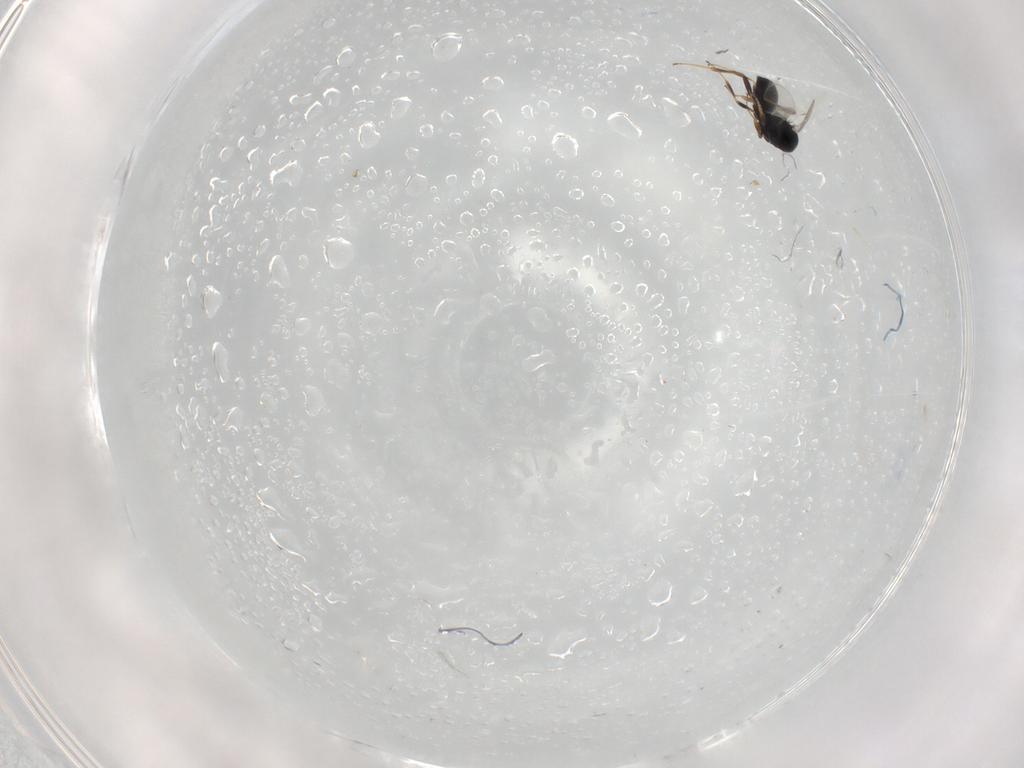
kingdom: Animalia
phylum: Arthropoda
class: Insecta
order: Hymenoptera
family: Scelionidae
